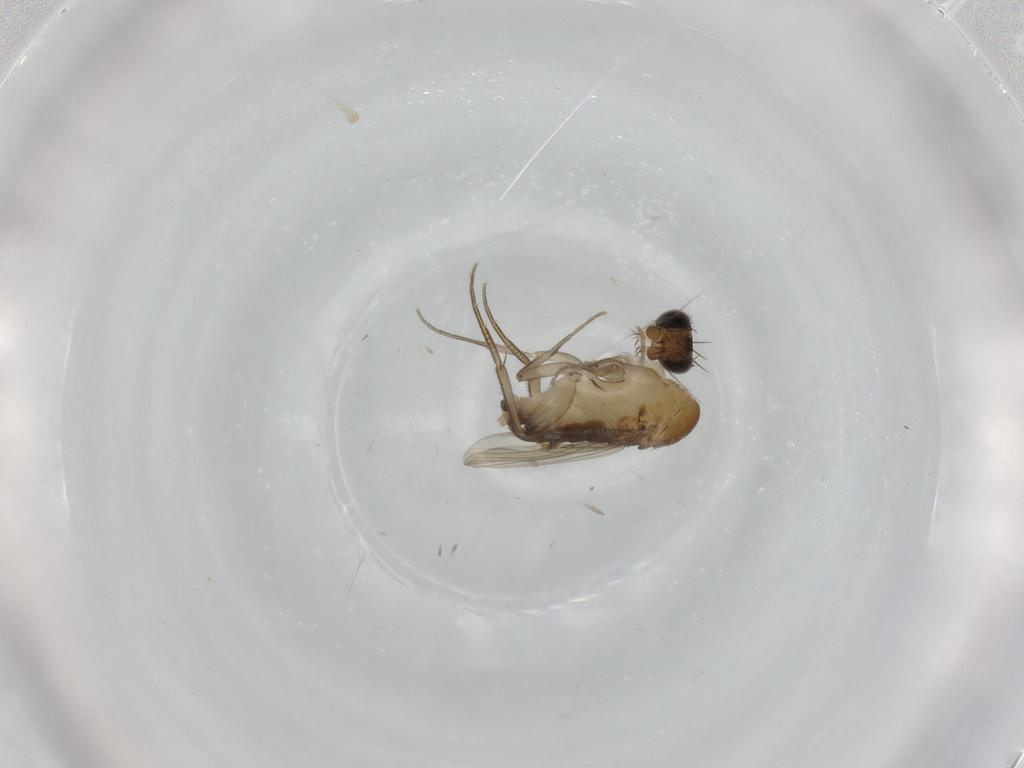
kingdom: Animalia
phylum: Arthropoda
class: Insecta
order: Diptera
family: Phoridae
